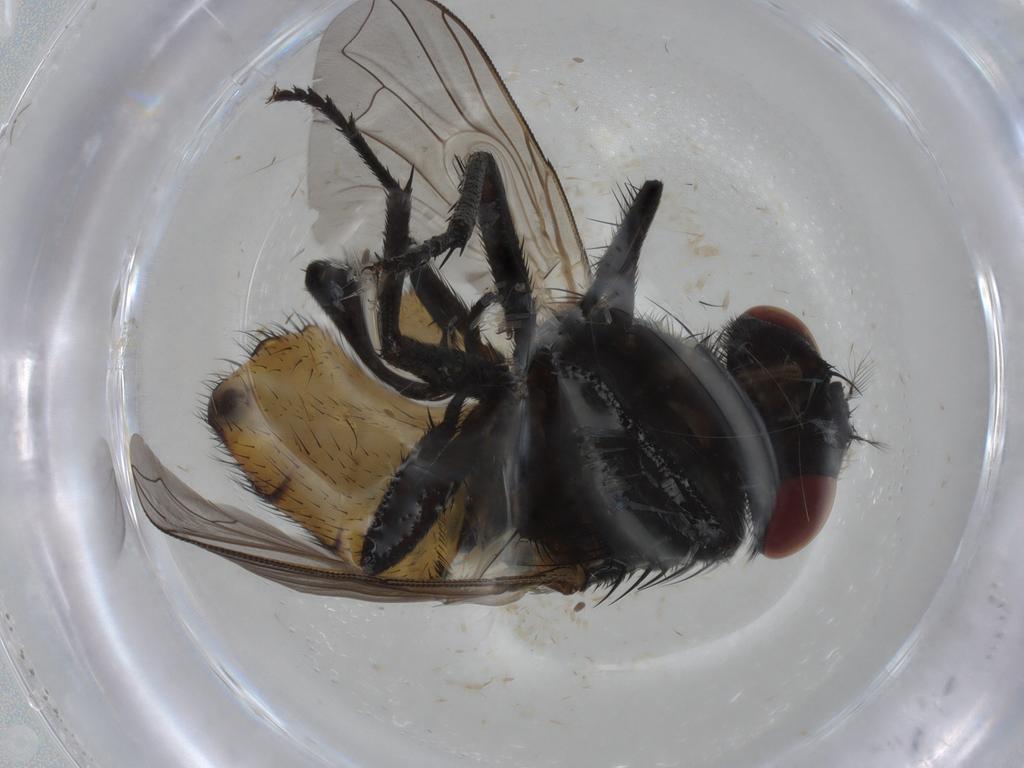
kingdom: Animalia
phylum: Arthropoda
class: Insecta
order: Diptera
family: Muscidae
